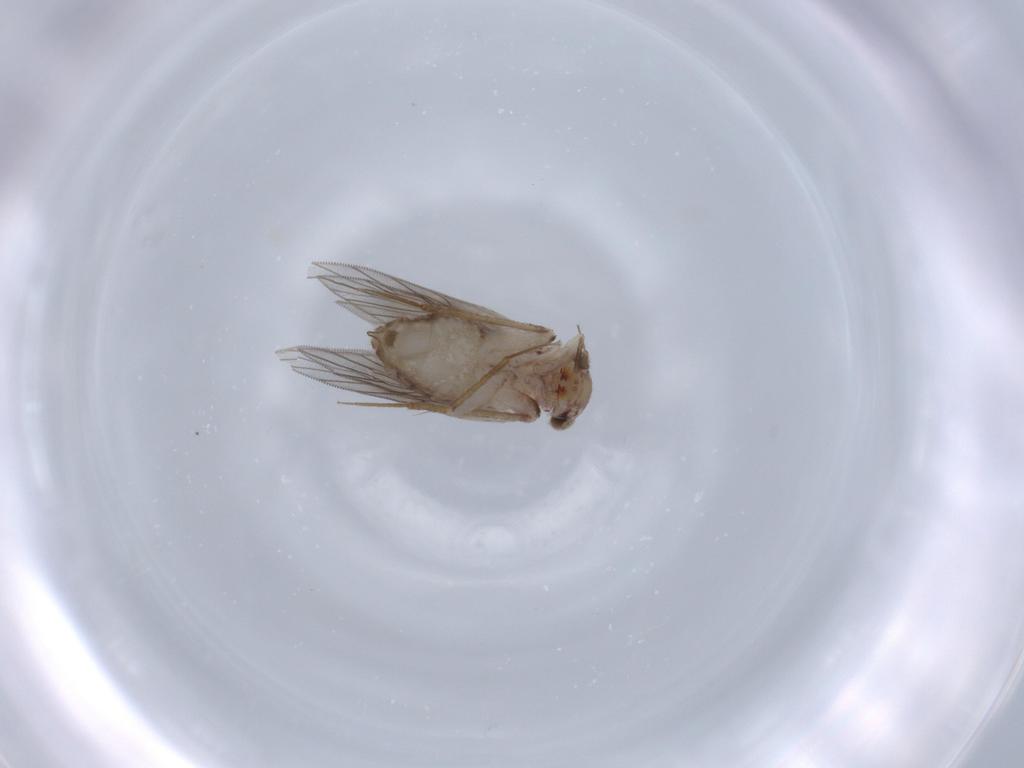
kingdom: Animalia
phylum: Arthropoda
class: Insecta
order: Psocodea
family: Lepidopsocidae
